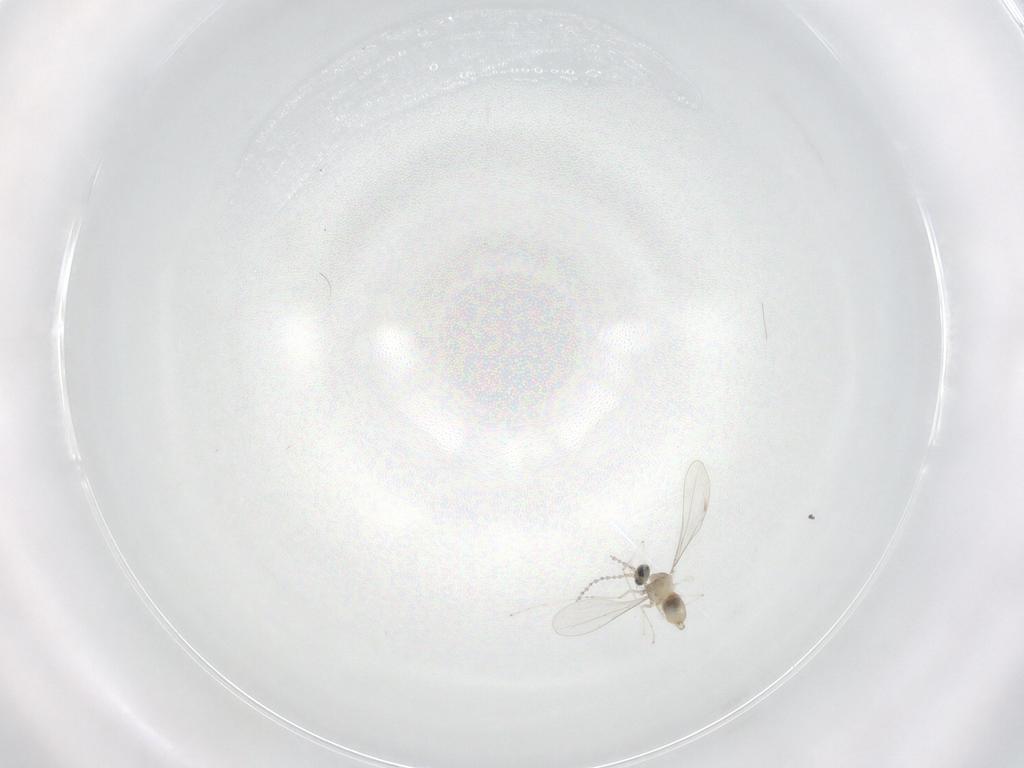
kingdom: Animalia
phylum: Arthropoda
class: Insecta
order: Diptera
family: Cecidomyiidae
